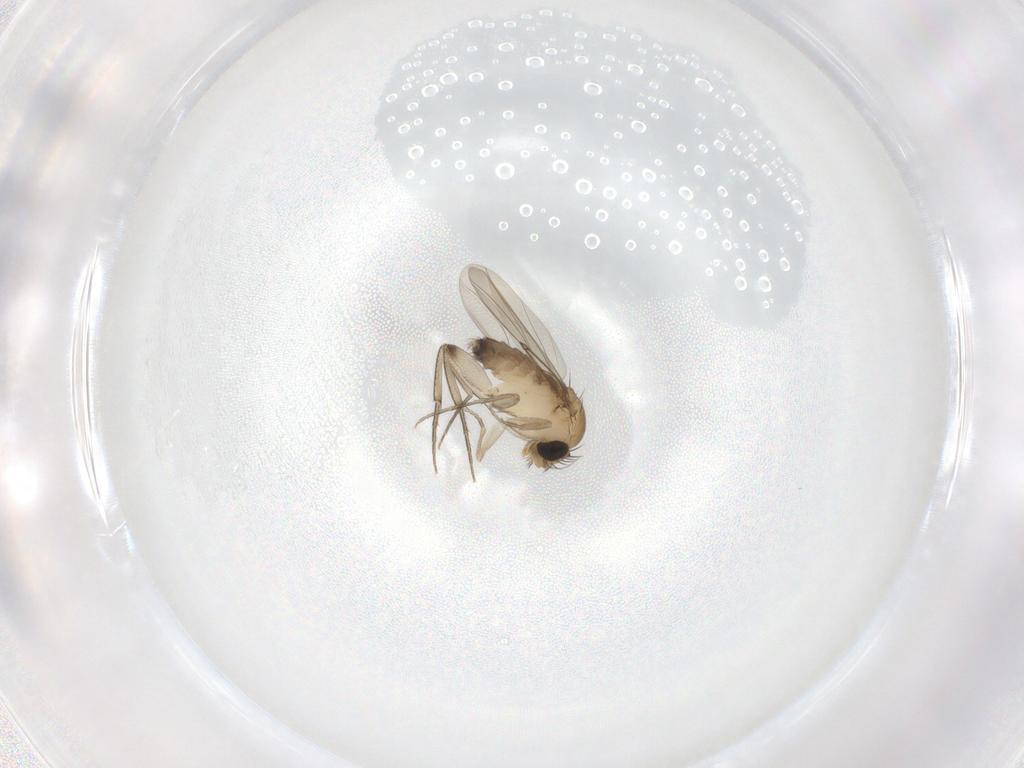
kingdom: Animalia
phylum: Arthropoda
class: Insecta
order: Diptera
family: Phoridae
